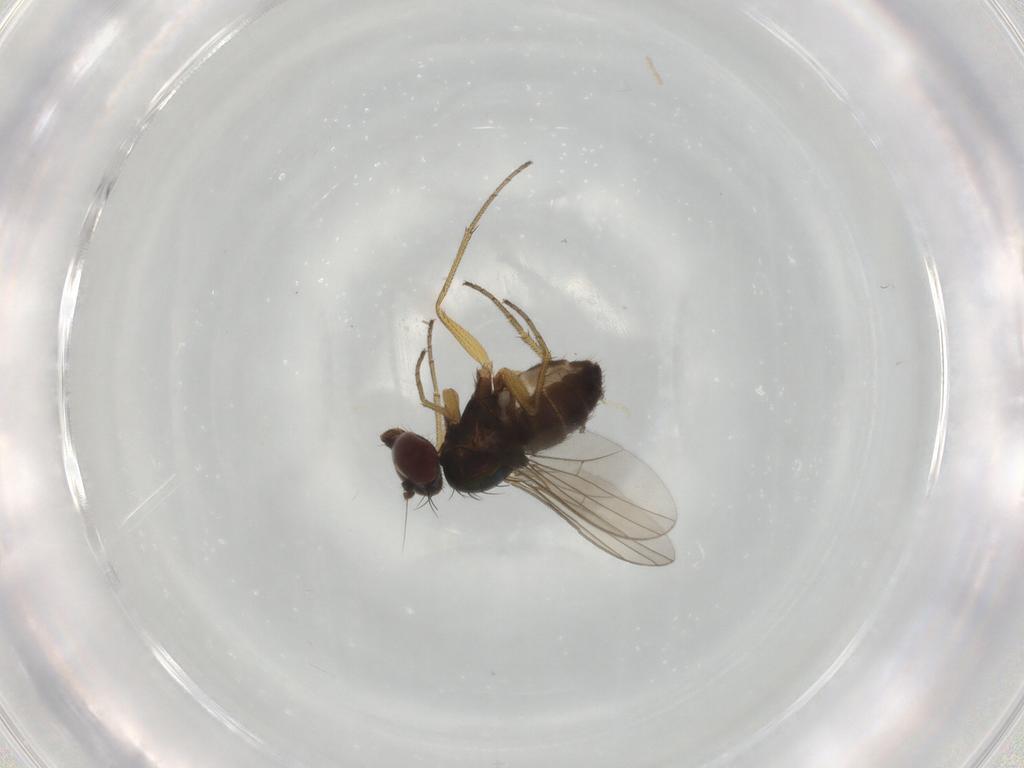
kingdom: Animalia
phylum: Arthropoda
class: Insecta
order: Diptera
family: Dolichopodidae
